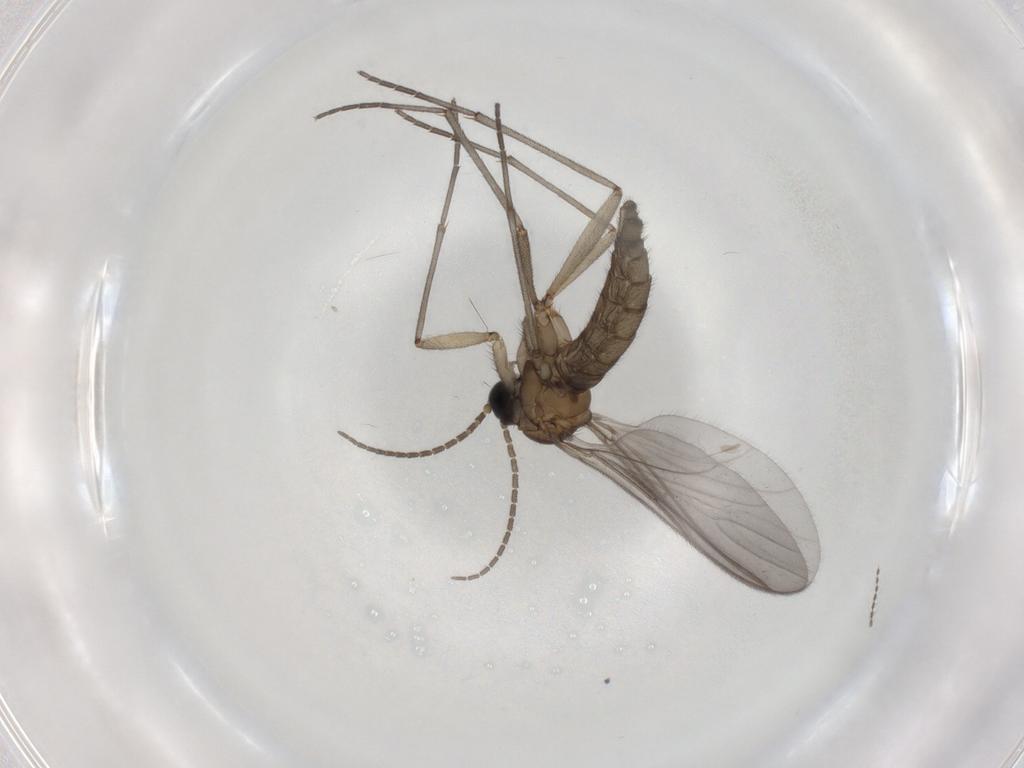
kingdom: Animalia
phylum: Arthropoda
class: Insecta
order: Diptera
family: Sciaridae
